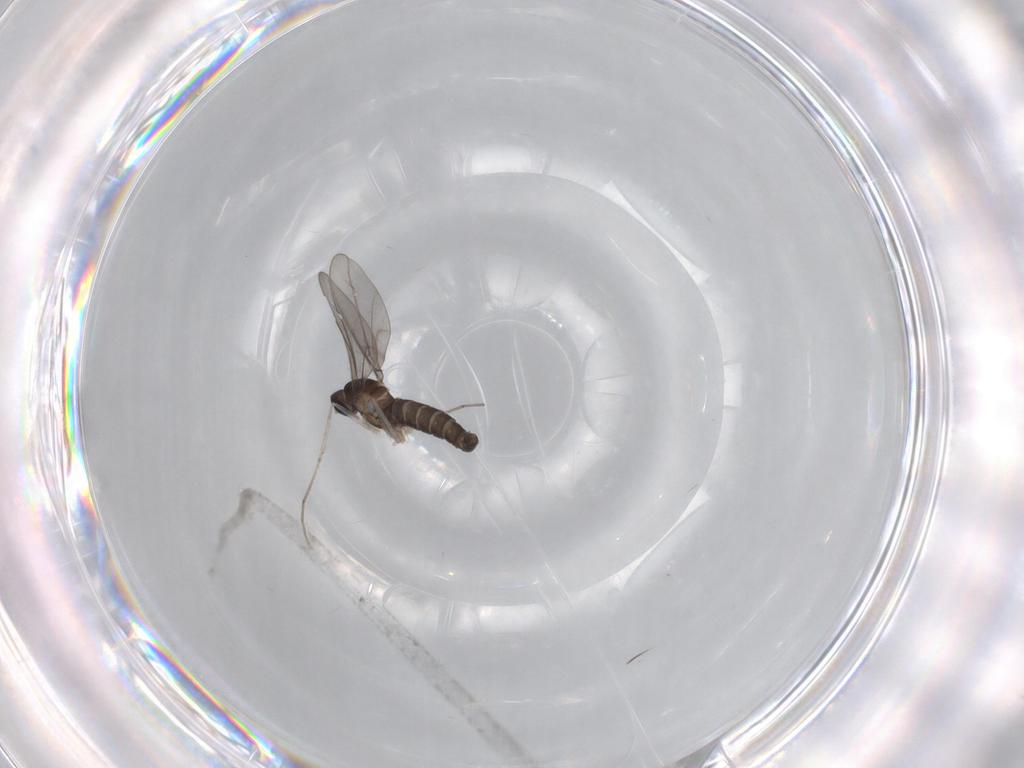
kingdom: Animalia
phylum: Arthropoda
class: Insecta
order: Diptera
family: Cecidomyiidae
